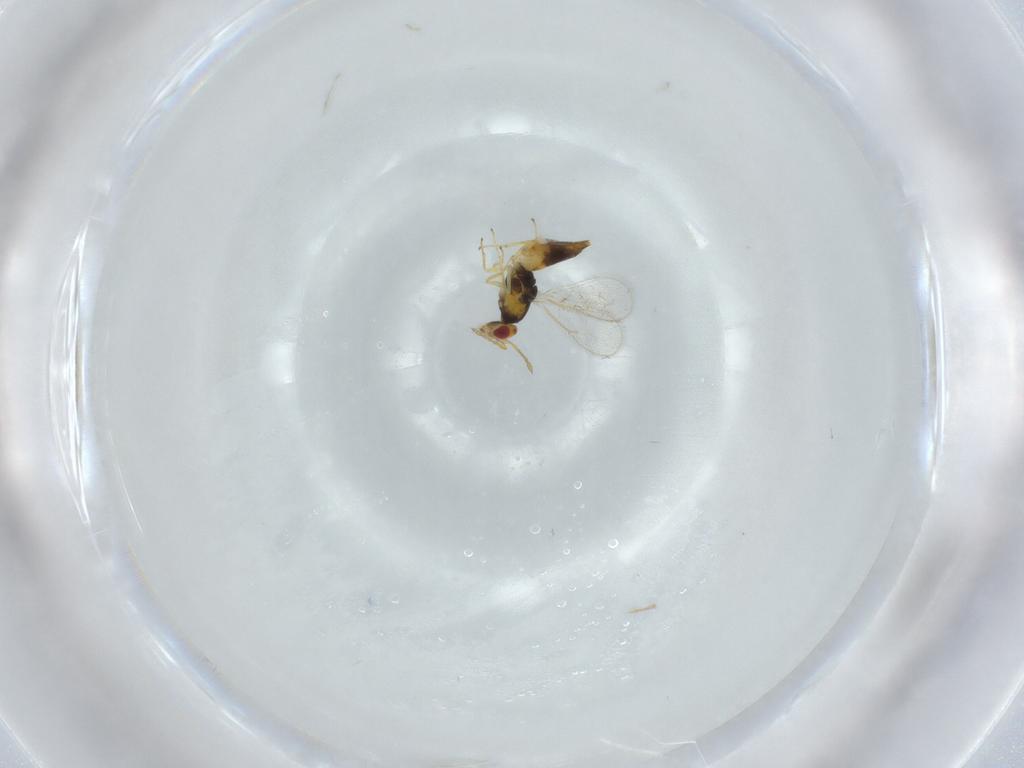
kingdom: Animalia
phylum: Arthropoda
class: Insecta
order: Hymenoptera
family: Eulophidae
